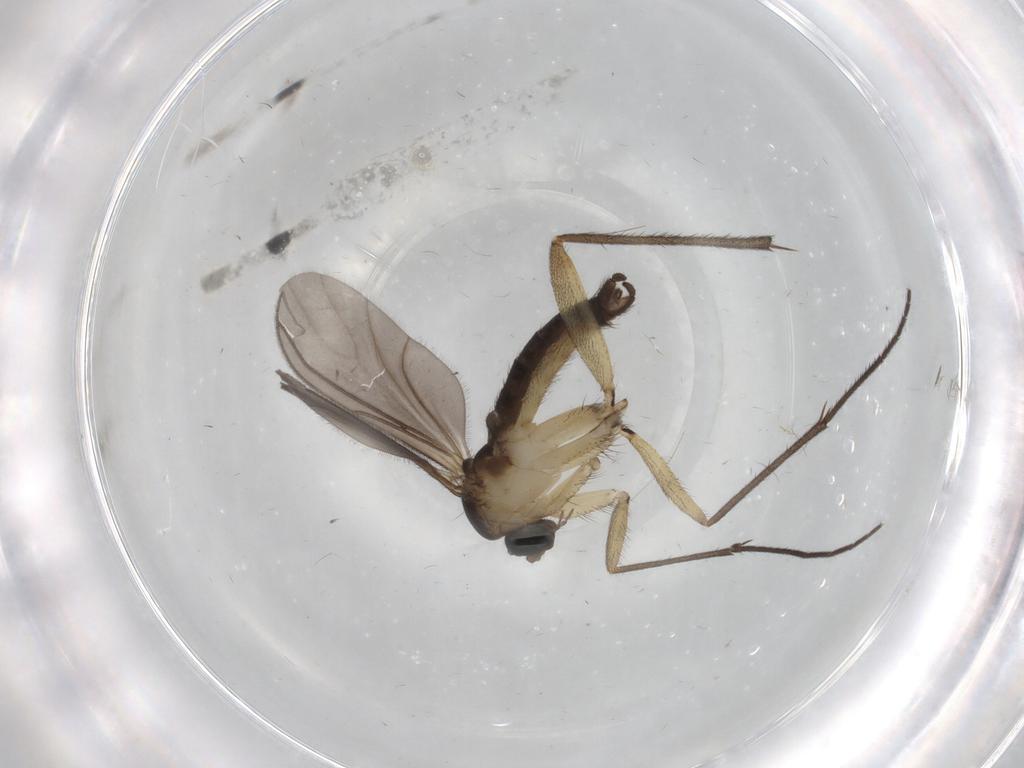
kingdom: Animalia
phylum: Arthropoda
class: Insecta
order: Diptera
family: Sciaridae
